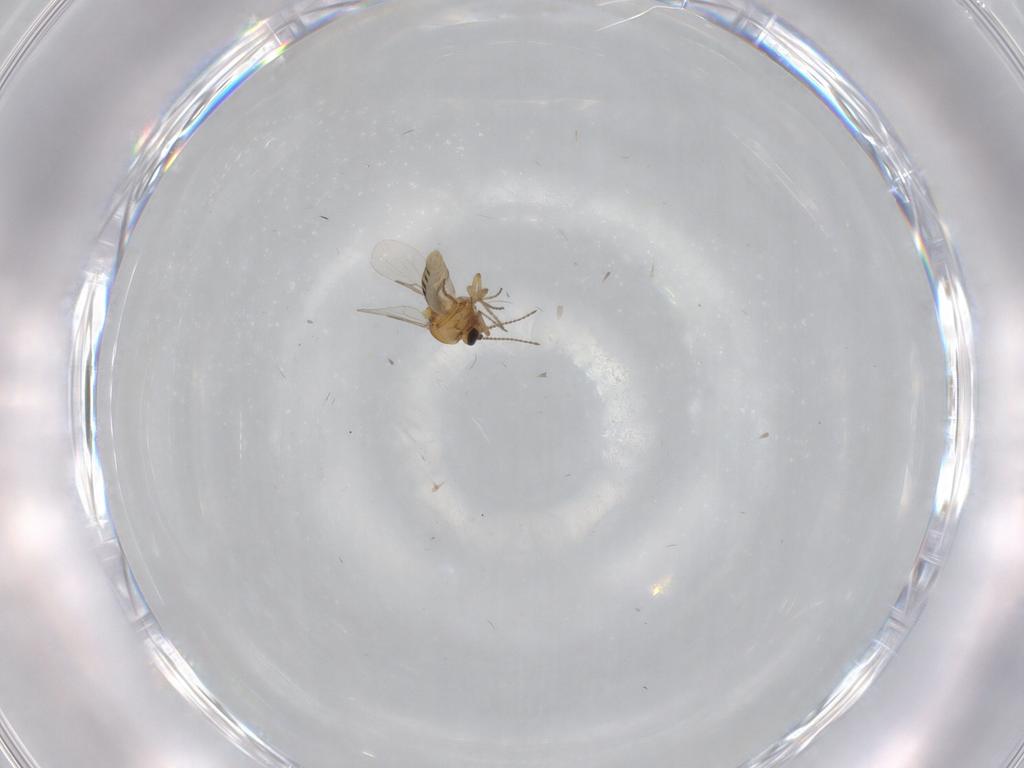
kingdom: Animalia
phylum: Arthropoda
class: Insecta
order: Diptera
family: Ceratopogonidae
